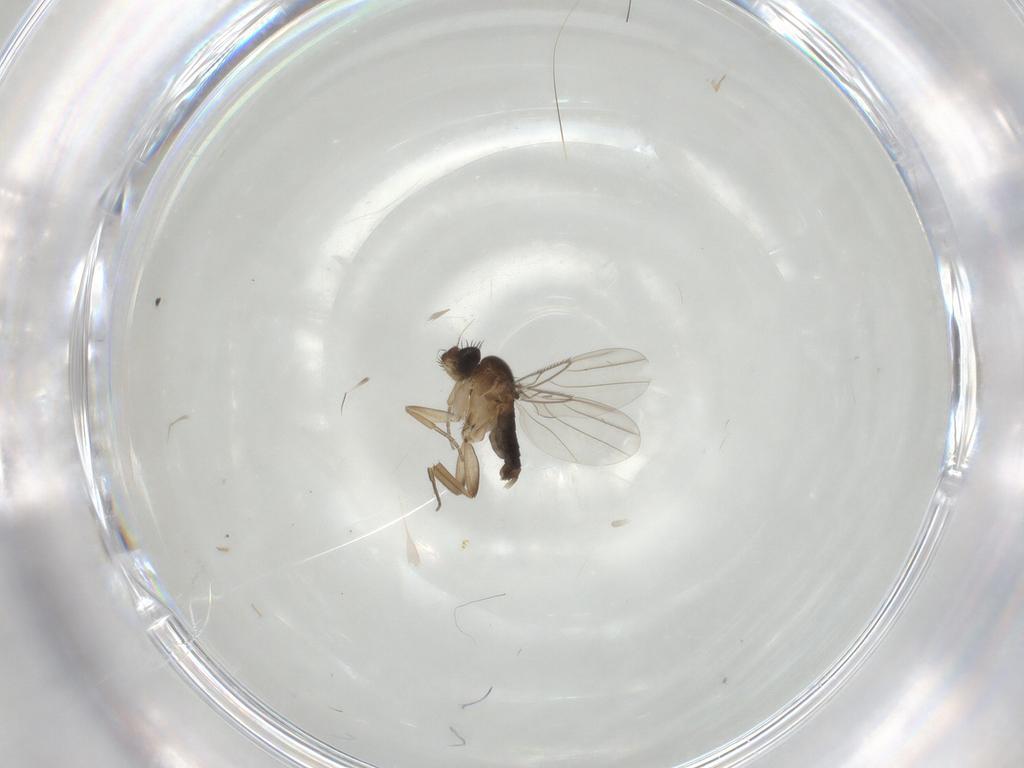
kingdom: Animalia
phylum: Arthropoda
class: Insecta
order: Diptera
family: Phoridae
